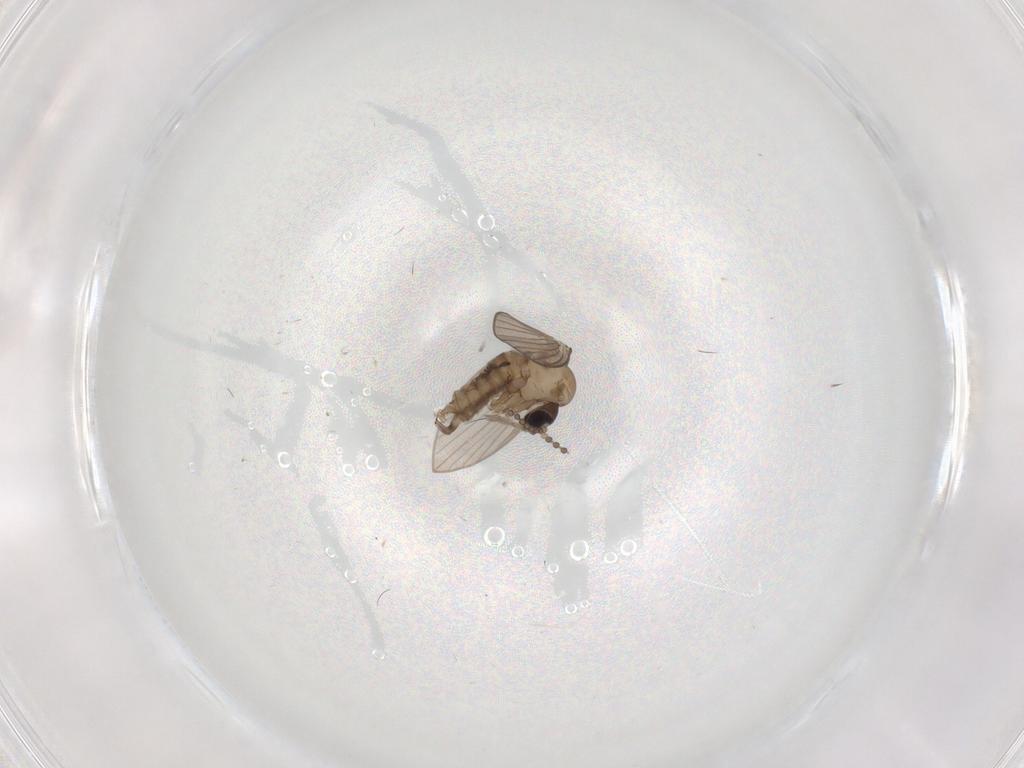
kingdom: Animalia
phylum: Arthropoda
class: Insecta
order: Diptera
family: Psychodidae
